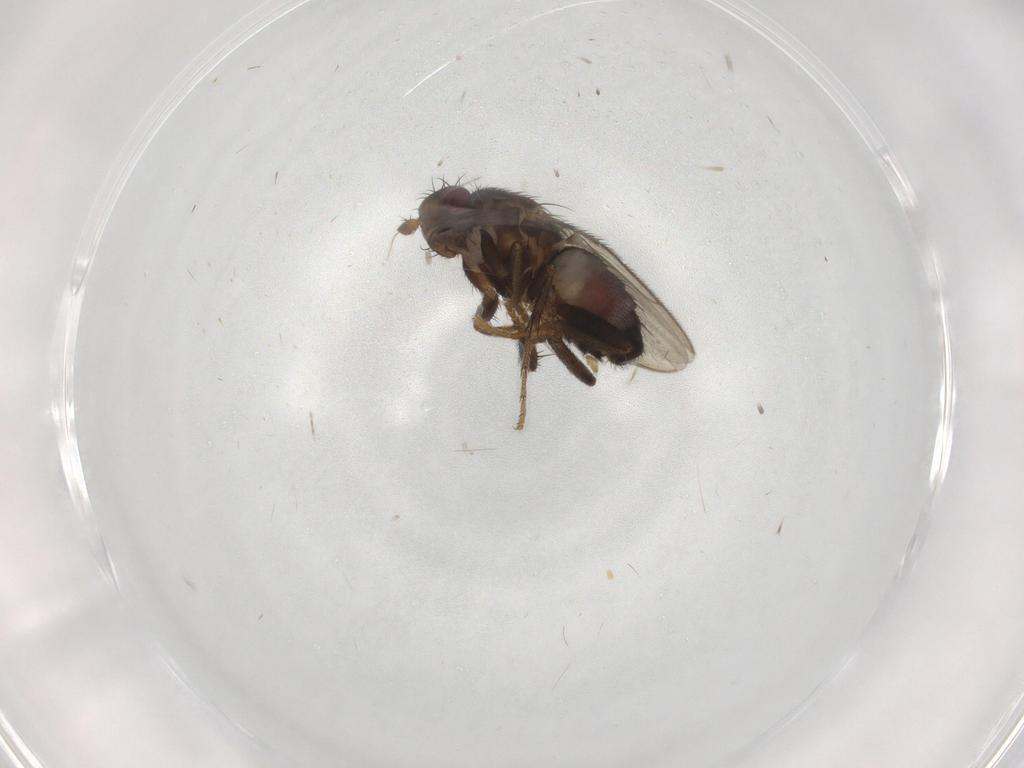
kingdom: Animalia
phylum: Arthropoda
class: Insecta
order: Diptera
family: Sphaeroceridae
